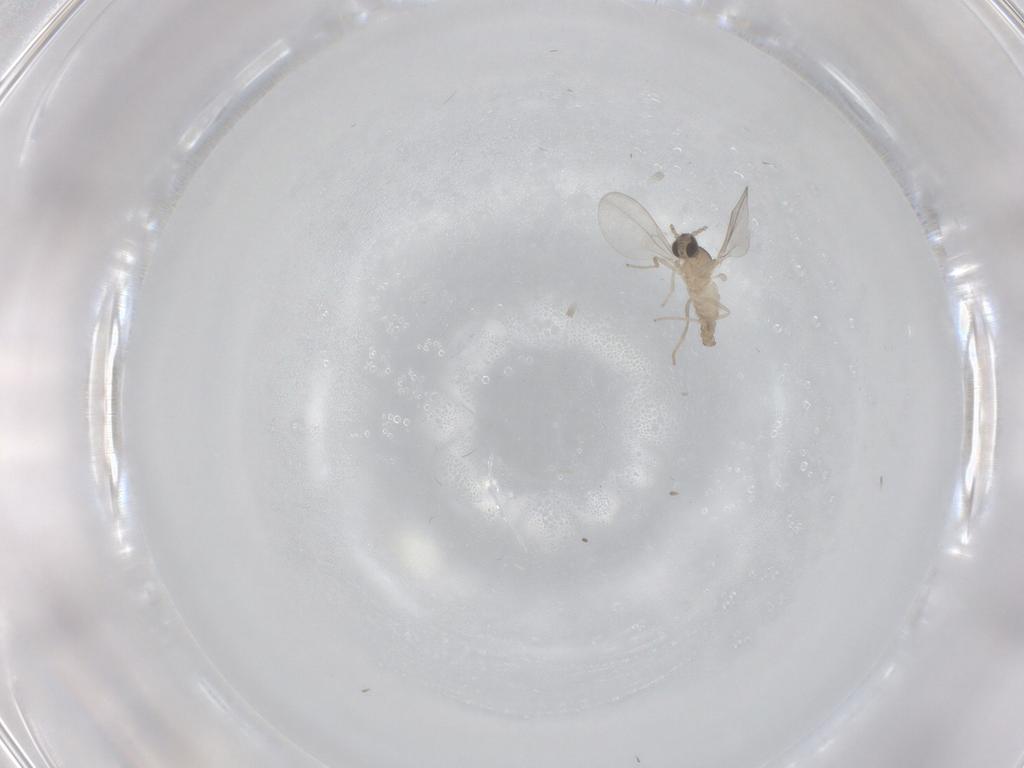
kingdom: Animalia
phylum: Arthropoda
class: Insecta
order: Diptera
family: Cecidomyiidae
